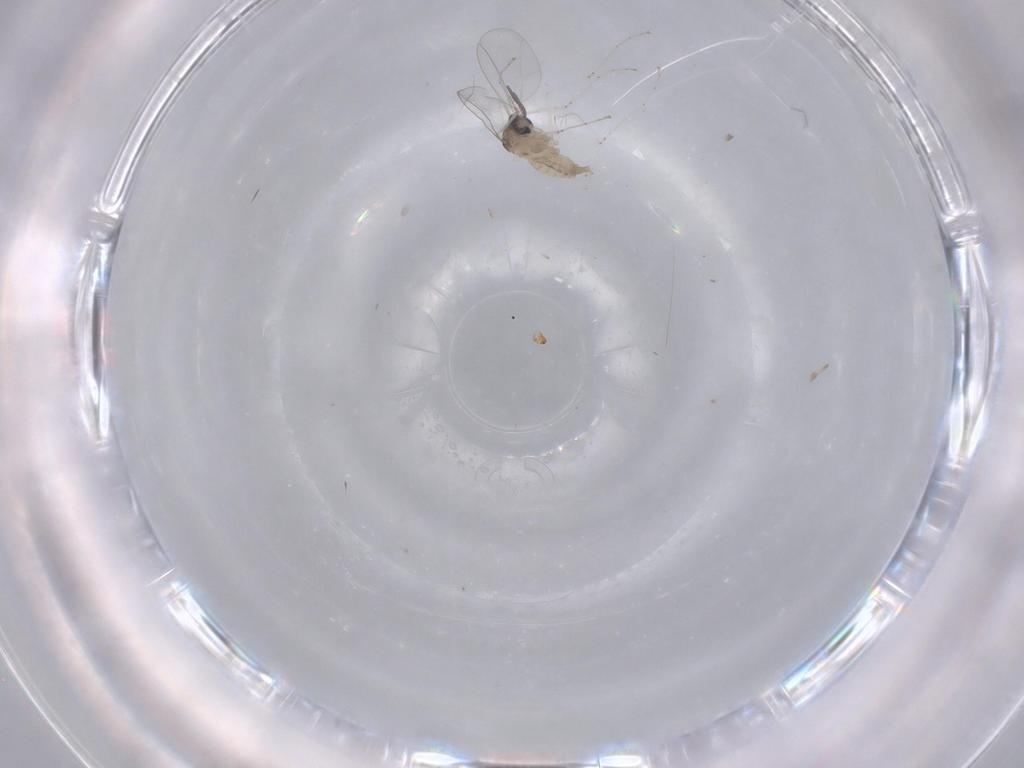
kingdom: Animalia
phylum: Arthropoda
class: Insecta
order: Diptera
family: Cecidomyiidae
